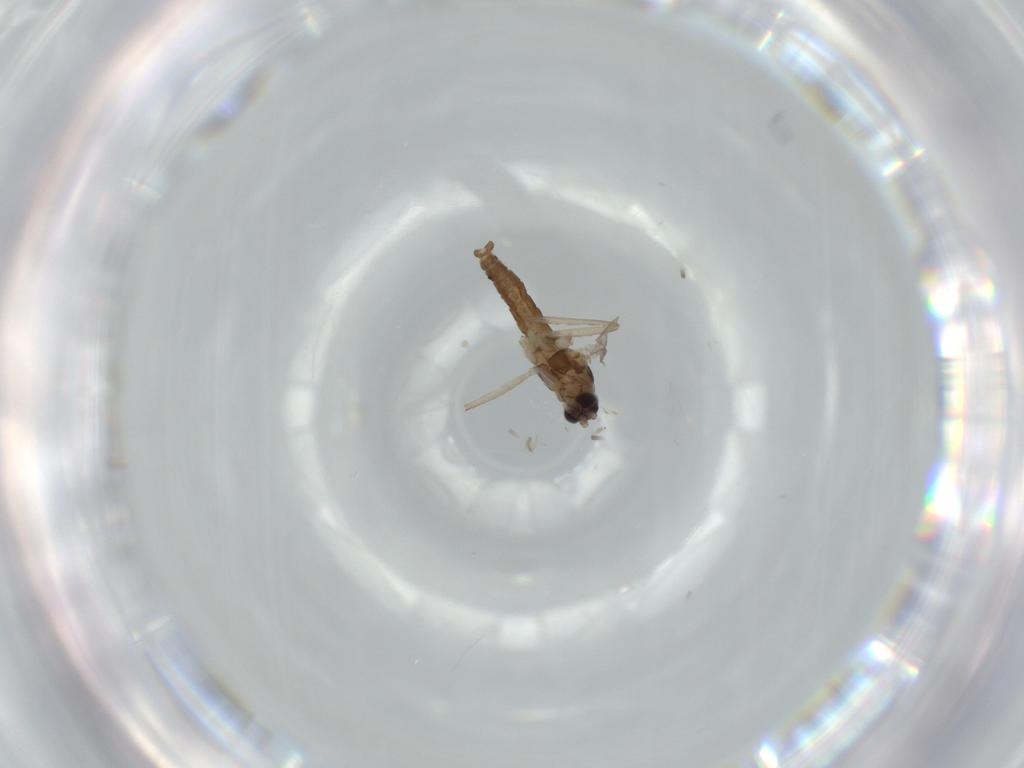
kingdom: Animalia
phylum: Arthropoda
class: Insecta
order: Diptera
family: Cecidomyiidae
